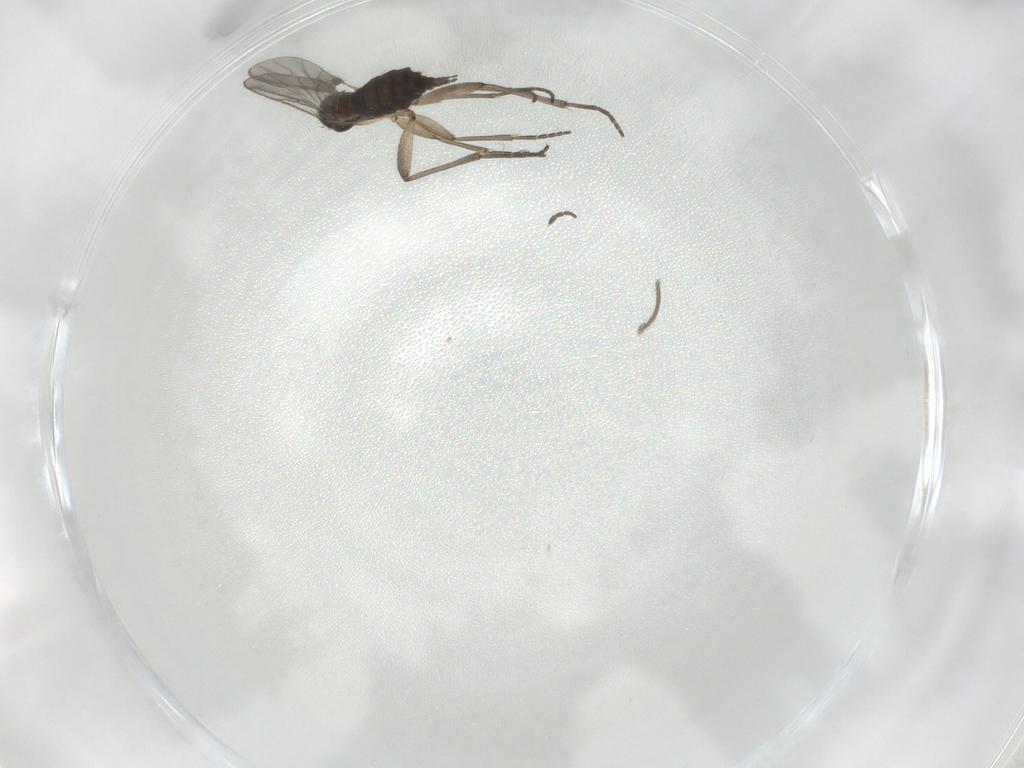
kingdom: Animalia
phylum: Arthropoda
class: Insecta
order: Diptera
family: Keroplatidae
